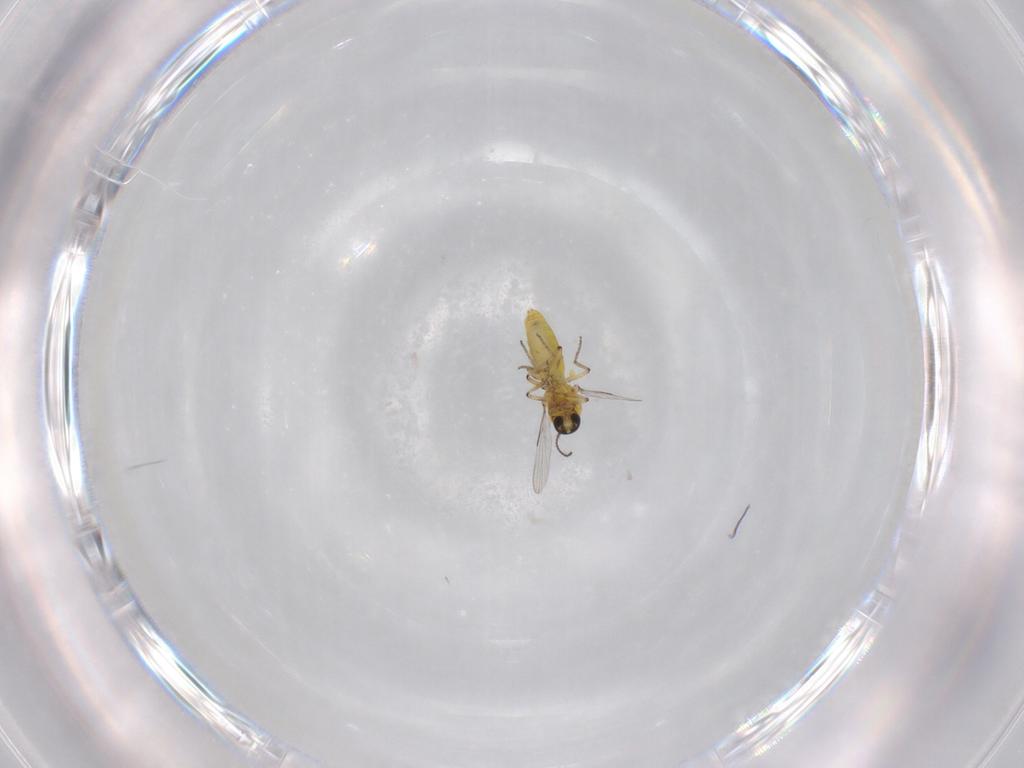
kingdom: Animalia
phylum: Arthropoda
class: Insecta
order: Diptera
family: Ceratopogonidae
